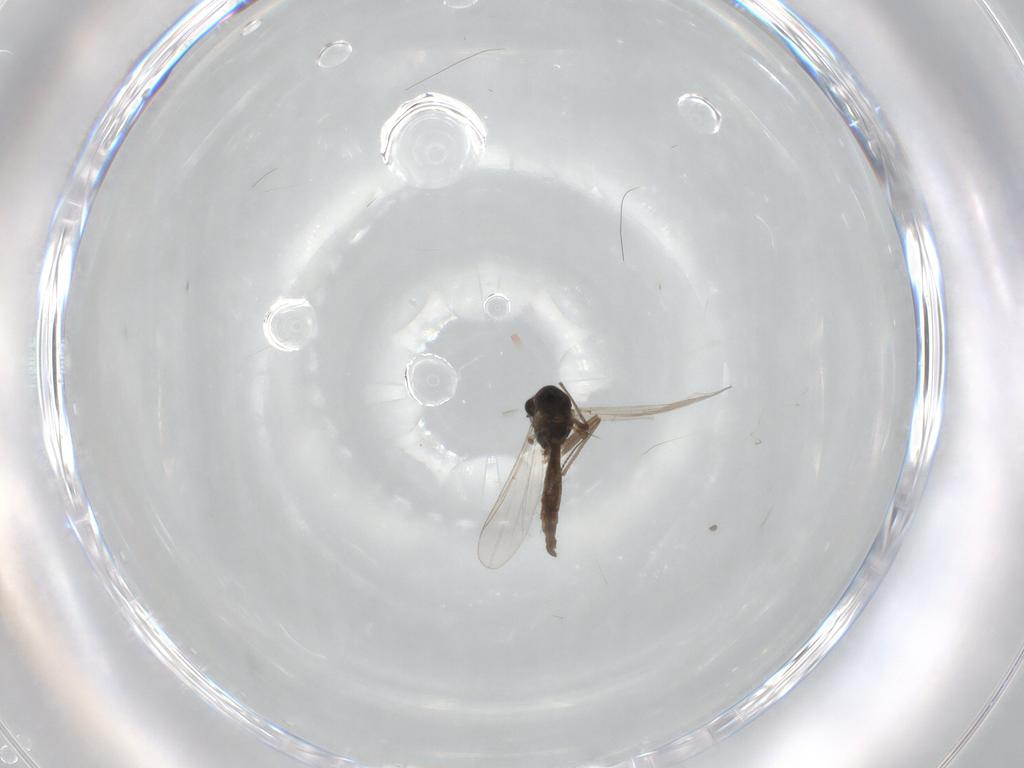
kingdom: Animalia
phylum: Arthropoda
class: Insecta
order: Diptera
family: Chironomidae
